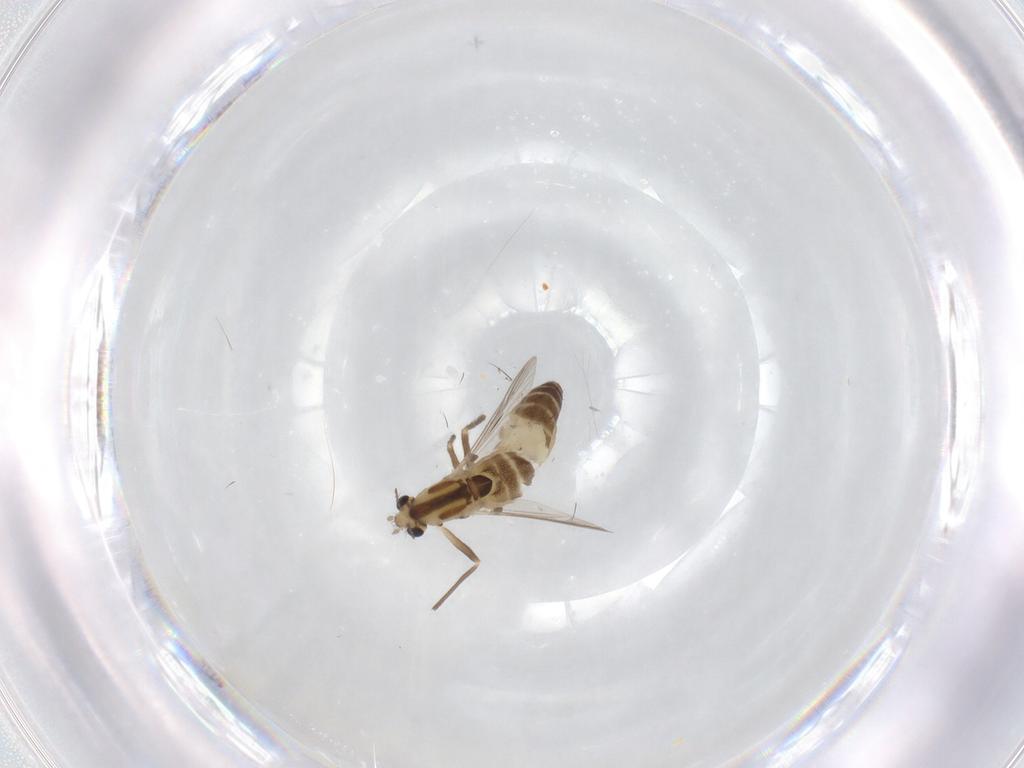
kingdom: Animalia
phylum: Arthropoda
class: Insecta
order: Diptera
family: Chironomidae
